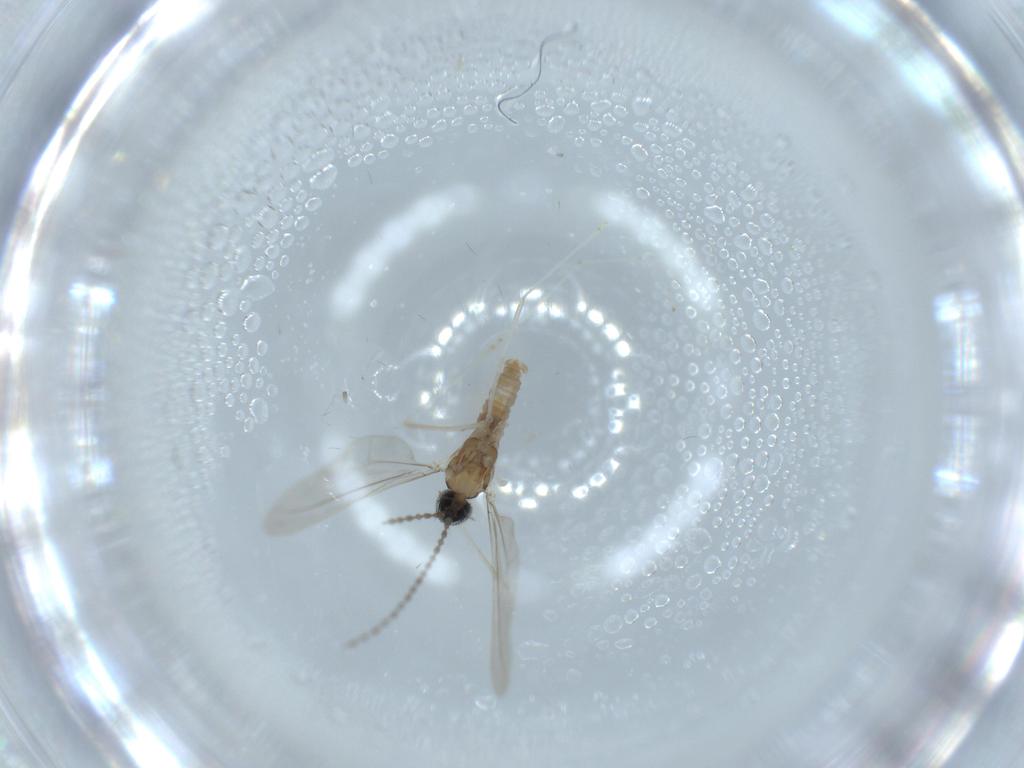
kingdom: Animalia
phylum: Arthropoda
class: Insecta
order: Diptera
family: Cecidomyiidae
